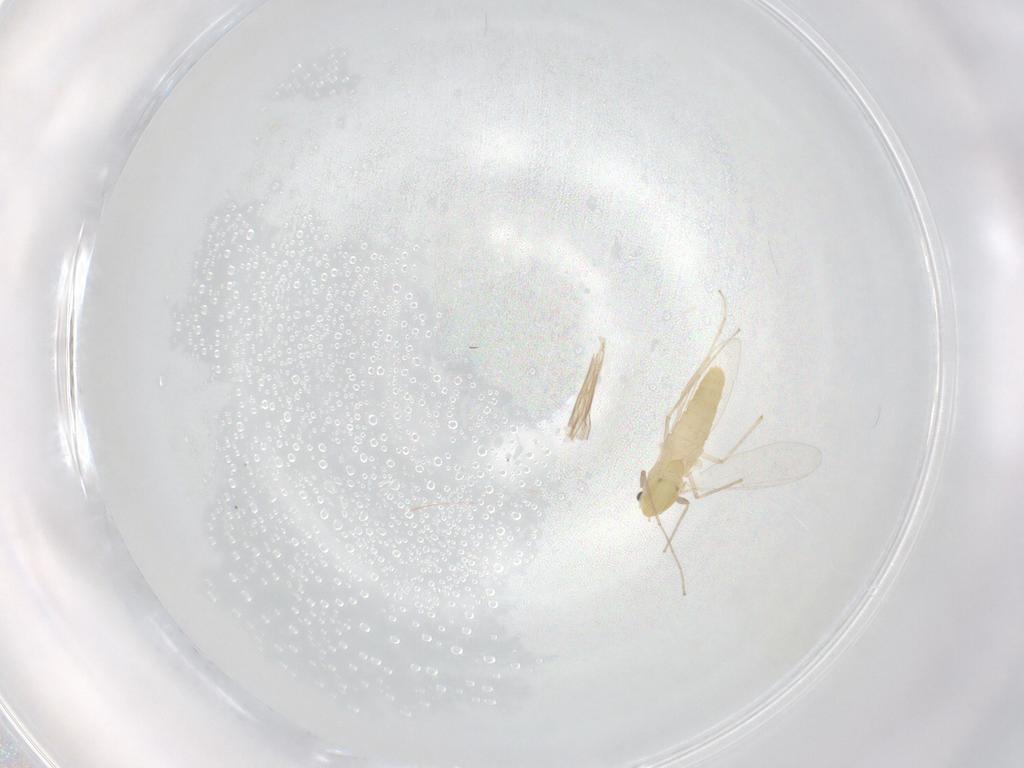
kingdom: Animalia
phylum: Arthropoda
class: Insecta
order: Diptera
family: Chironomidae
